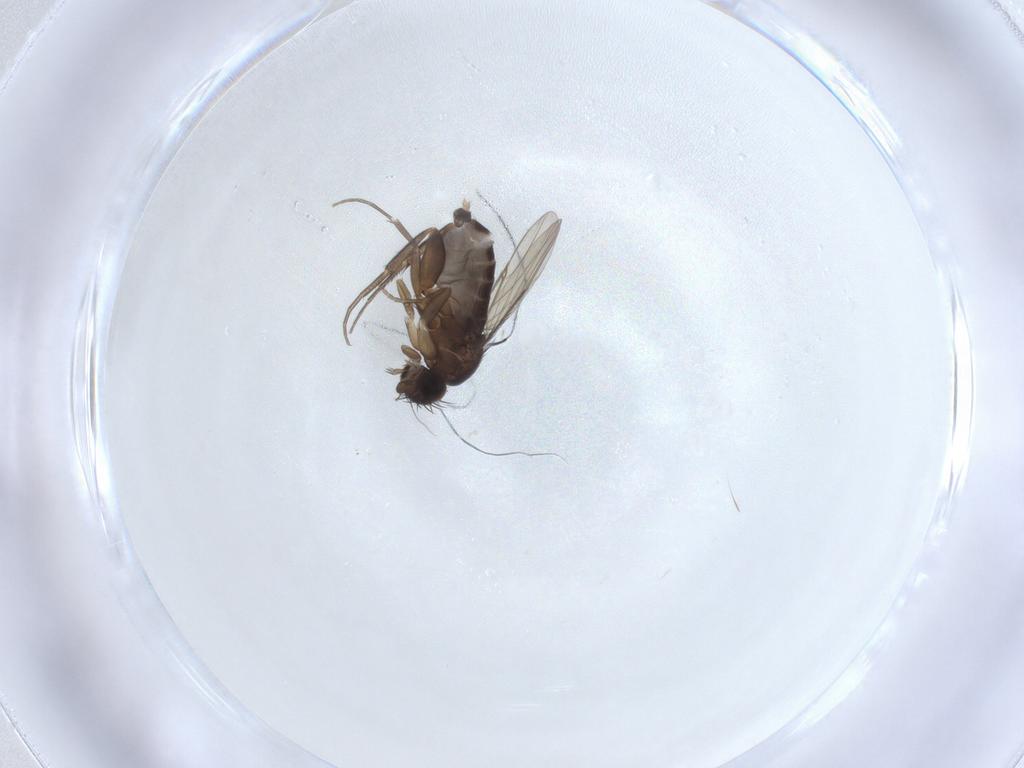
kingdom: Animalia
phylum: Arthropoda
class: Insecta
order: Diptera
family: Phoridae
